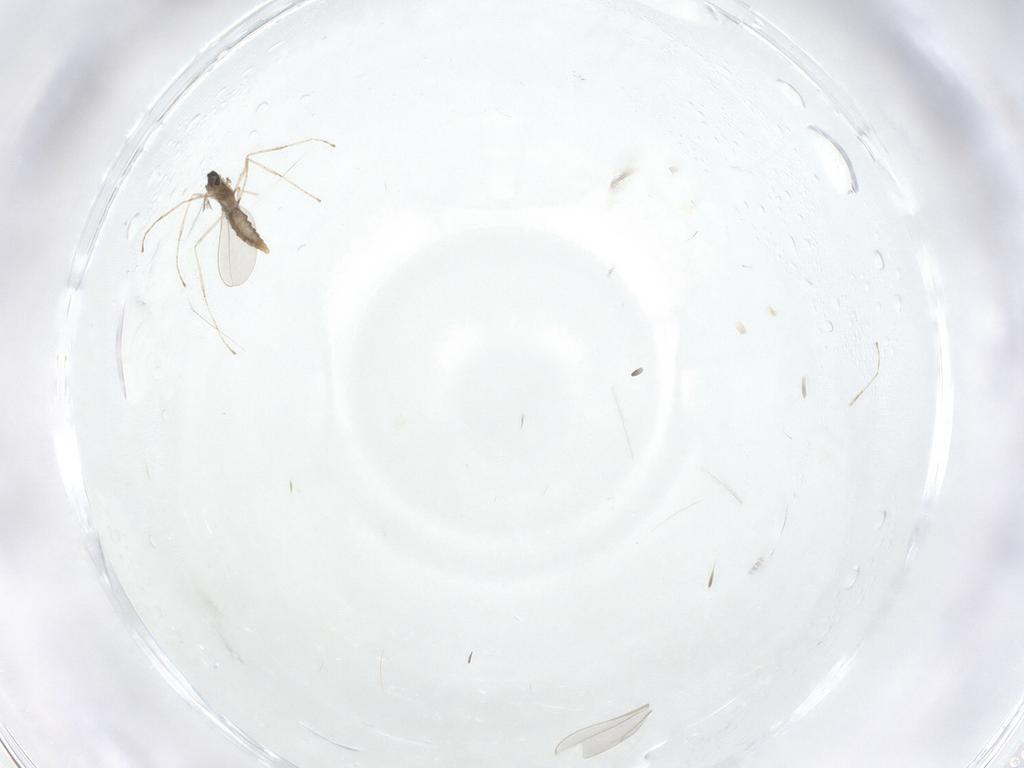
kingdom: Animalia
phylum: Arthropoda
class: Insecta
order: Diptera
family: Cecidomyiidae
